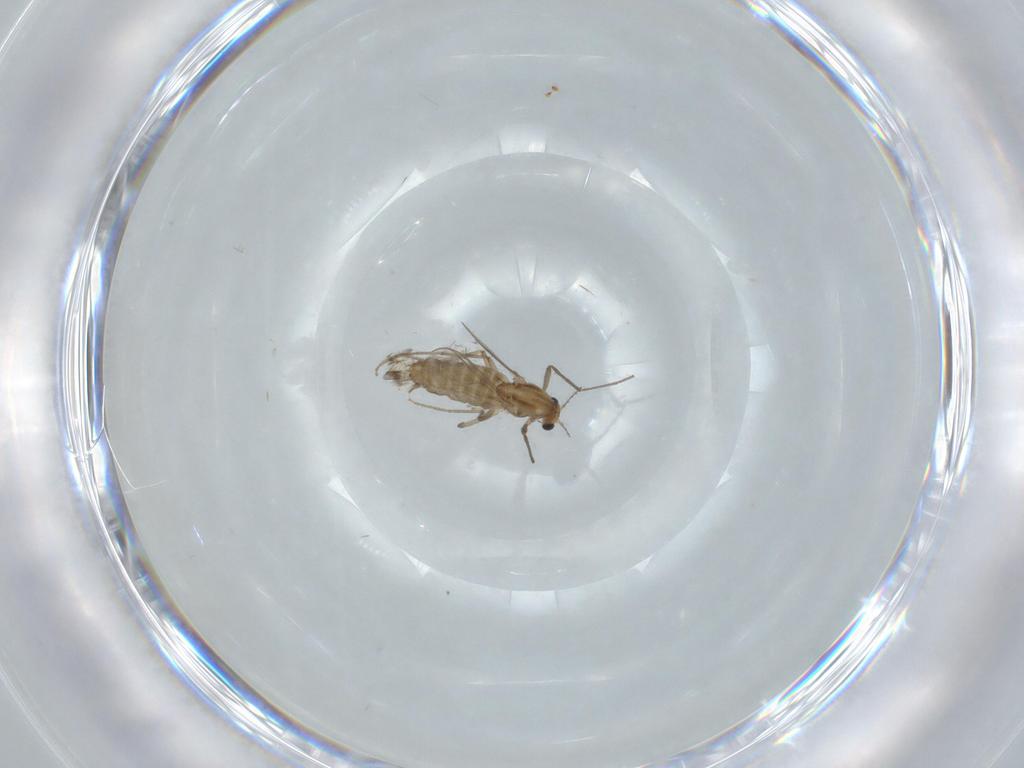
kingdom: Animalia
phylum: Arthropoda
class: Insecta
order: Diptera
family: Chironomidae
